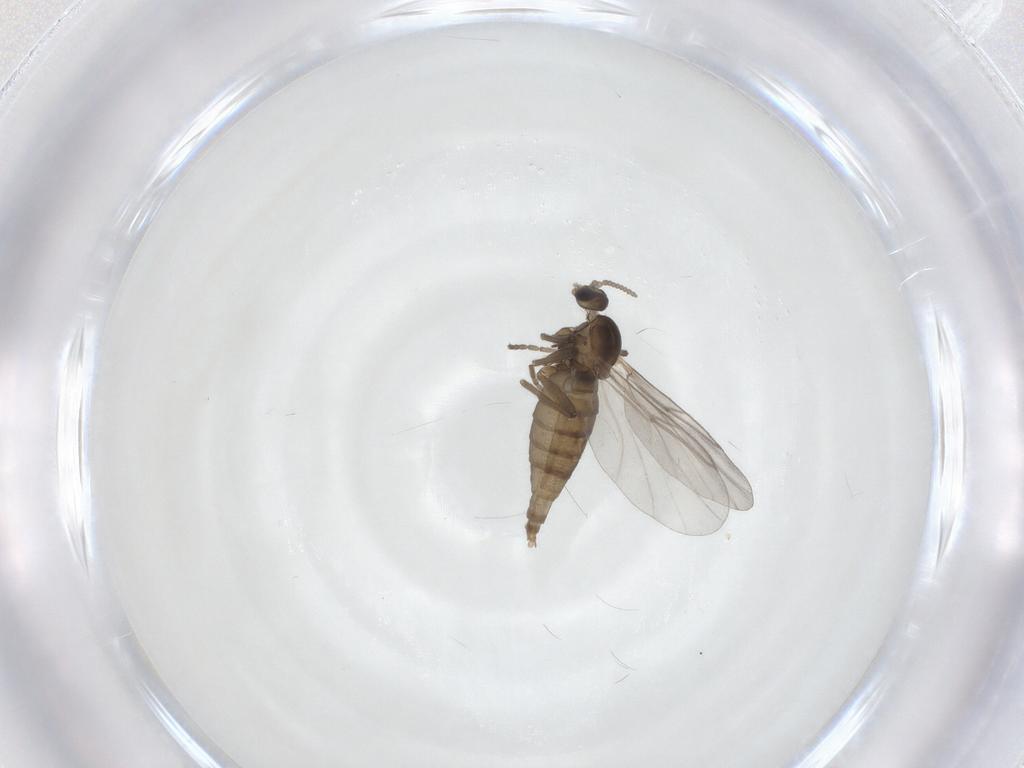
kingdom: Animalia
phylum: Arthropoda
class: Insecta
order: Diptera
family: Cecidomyiidae
